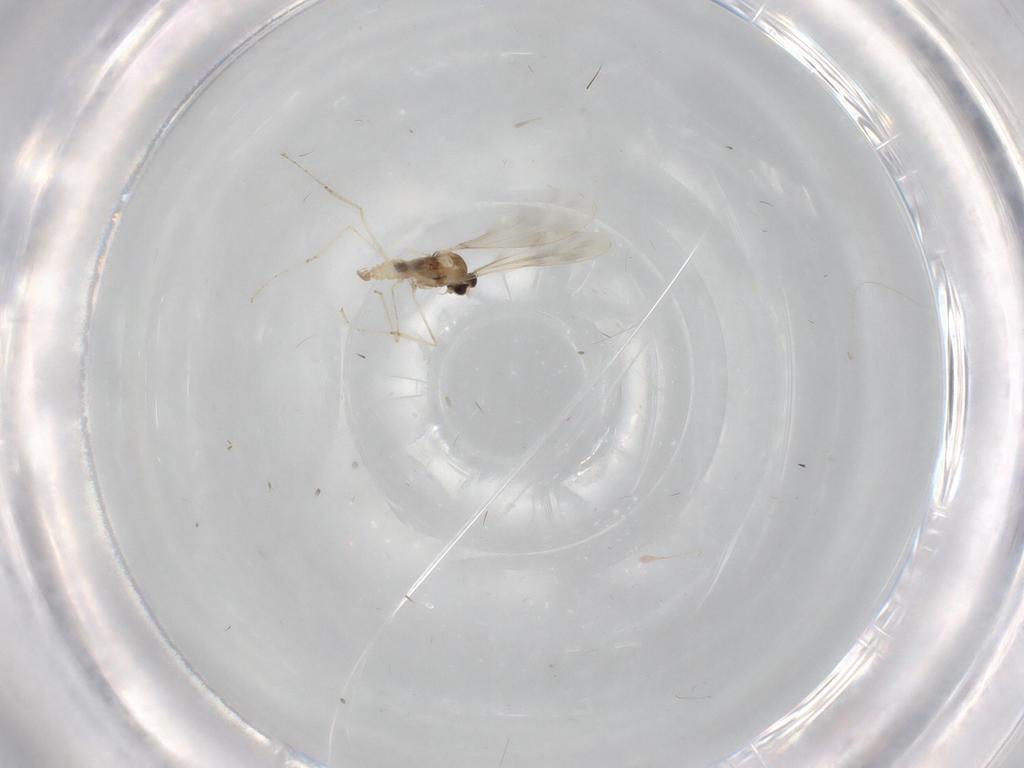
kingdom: Animalia
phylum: Arthropoda
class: Insecta
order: Diptera
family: Cecidomyiidae
